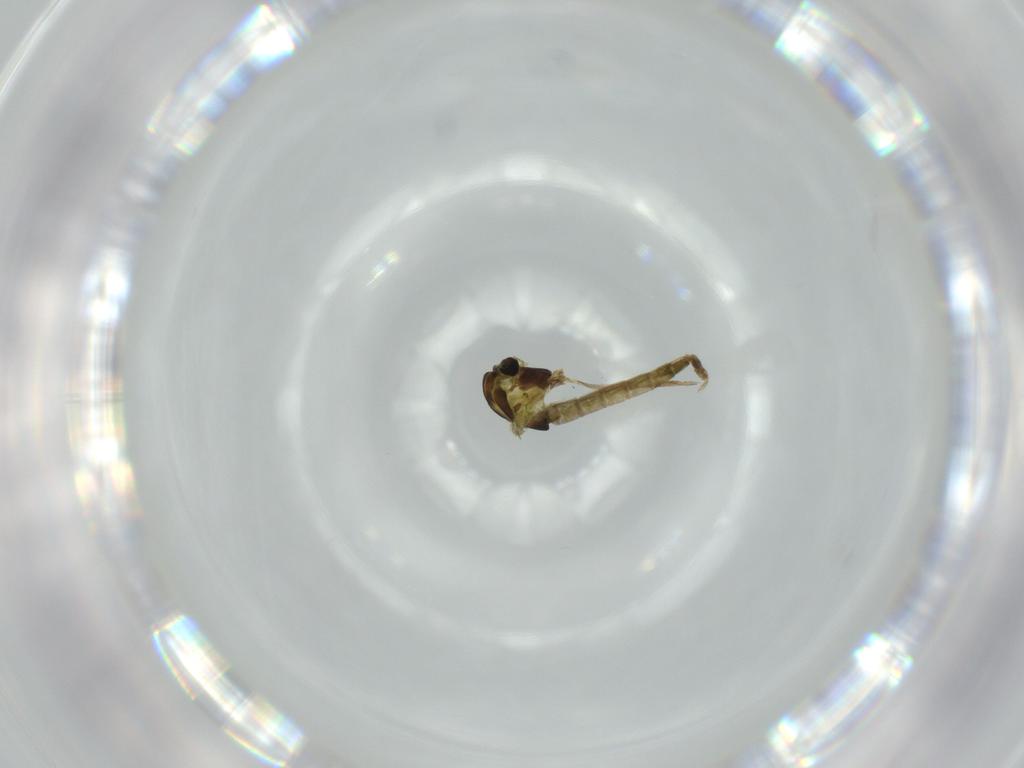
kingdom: Animalia
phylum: Arthropoda
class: Insecta
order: Diptera
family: Chironomidae
